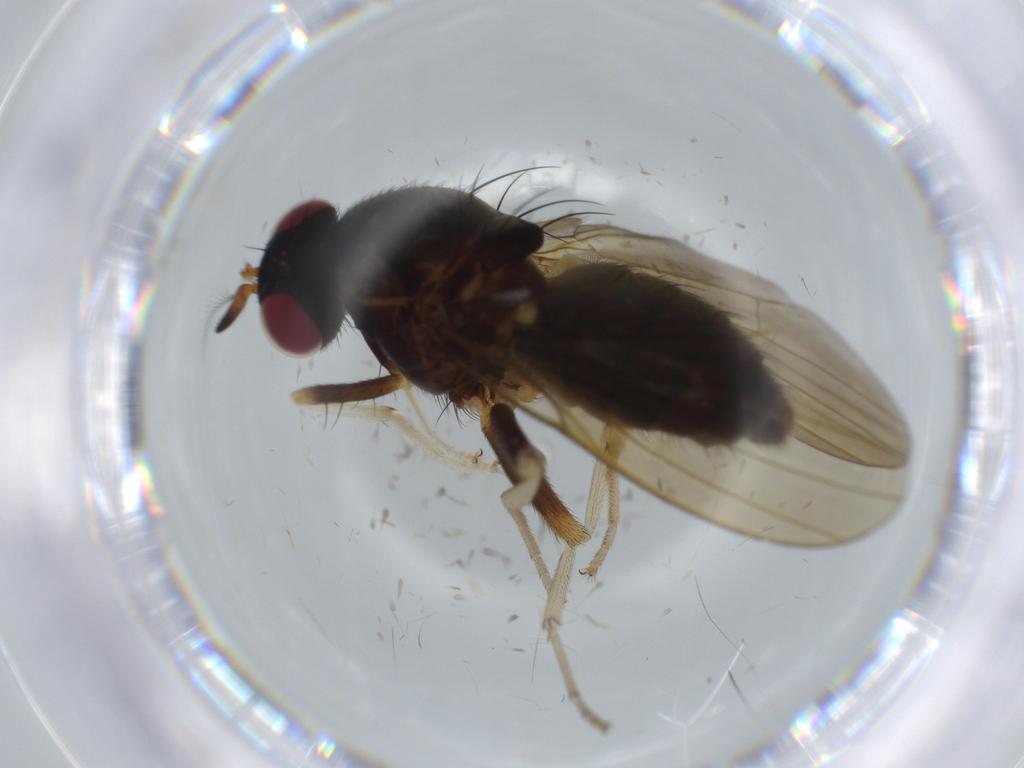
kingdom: Animalia
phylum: Arthropoda
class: Insecta
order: Diptera
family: Cecidomyiidae
